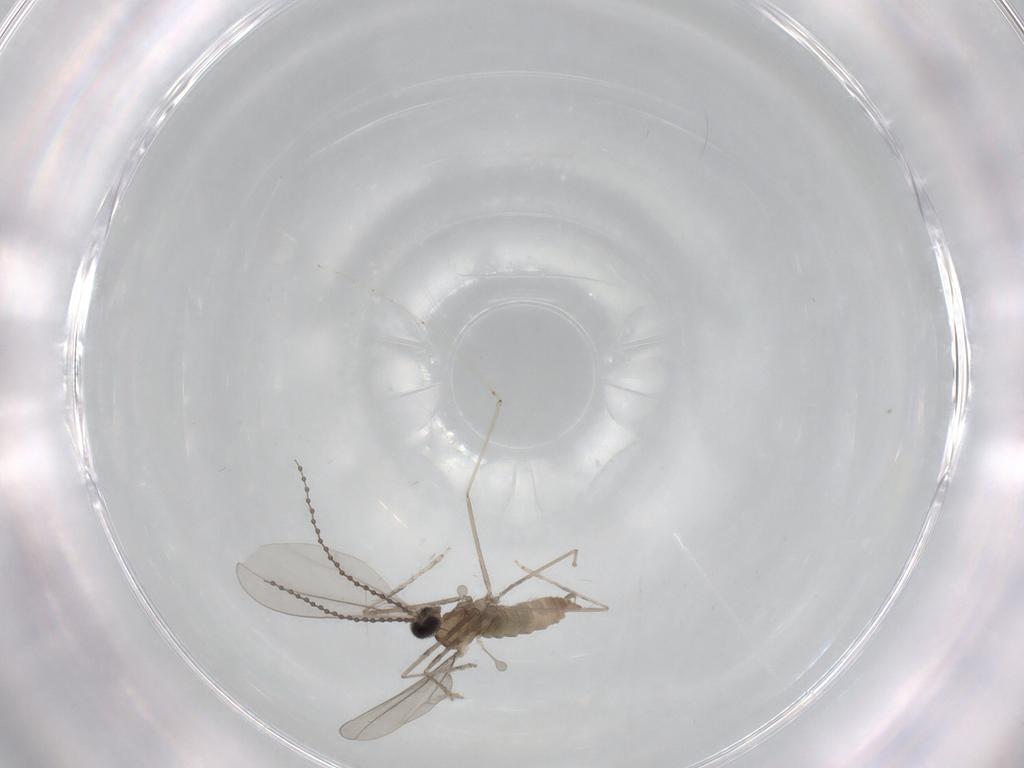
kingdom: Animalia
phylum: Arthropoda
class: Insecta
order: Diptera
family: Cecidomyiidae
